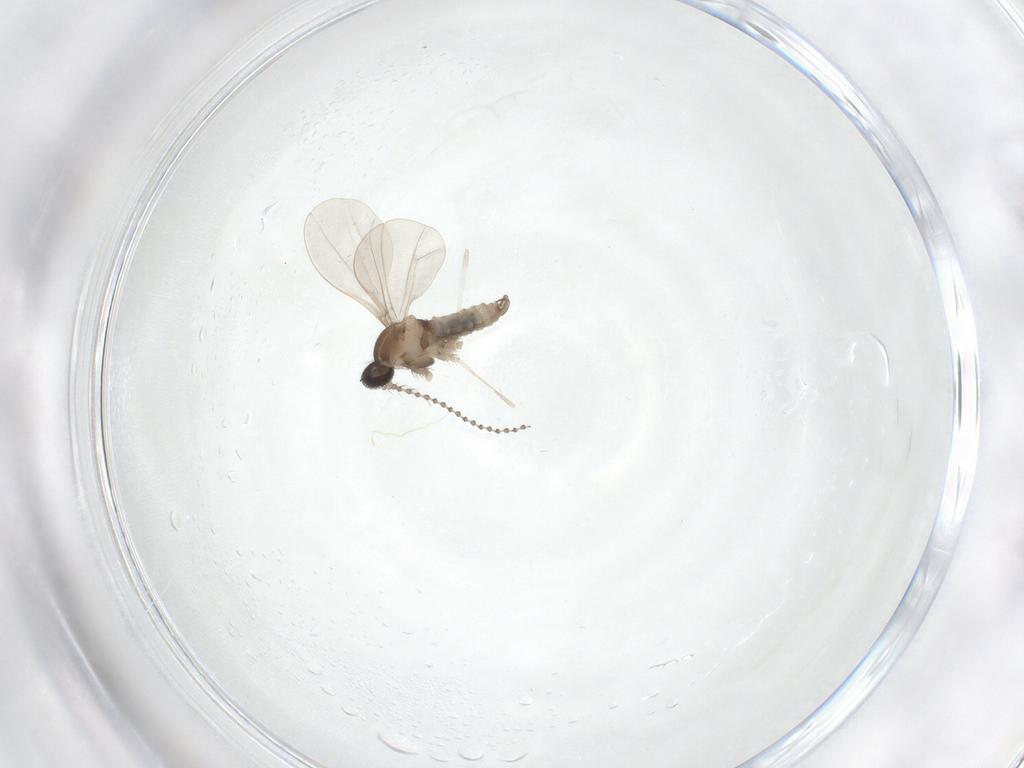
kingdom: Animalia
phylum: Arthropoda
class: Insecta
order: Diptera
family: Cecidomyiidae
